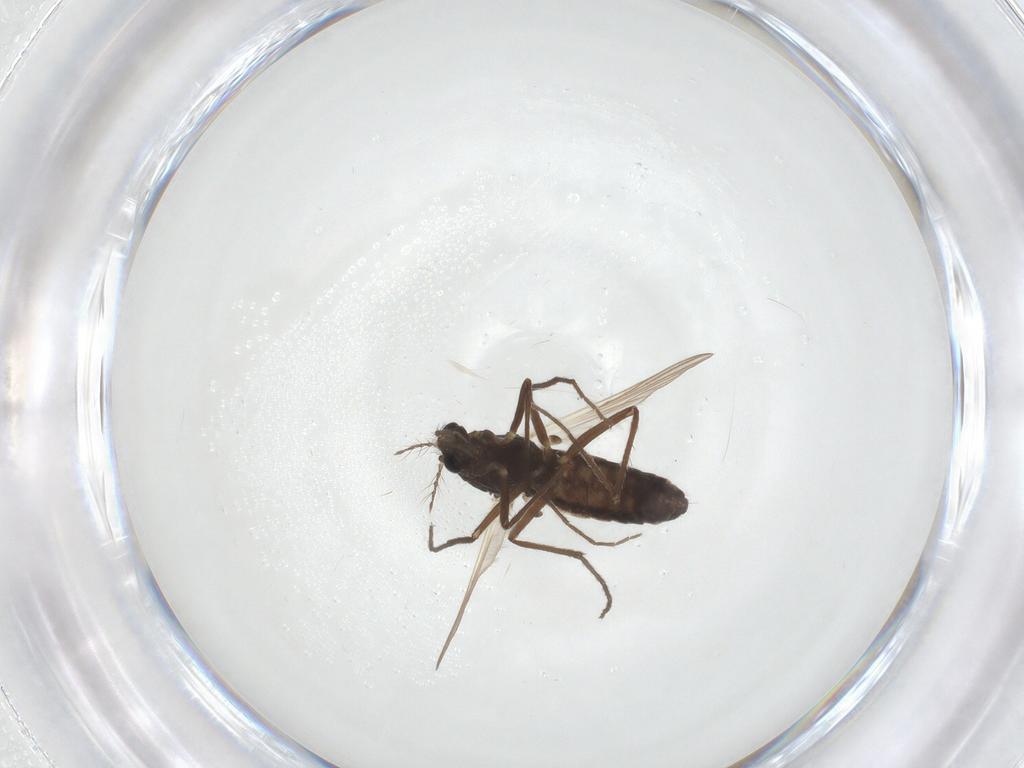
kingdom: Animalia
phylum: Arthropoda
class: Insecta
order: Diptera
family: Chironomidae
